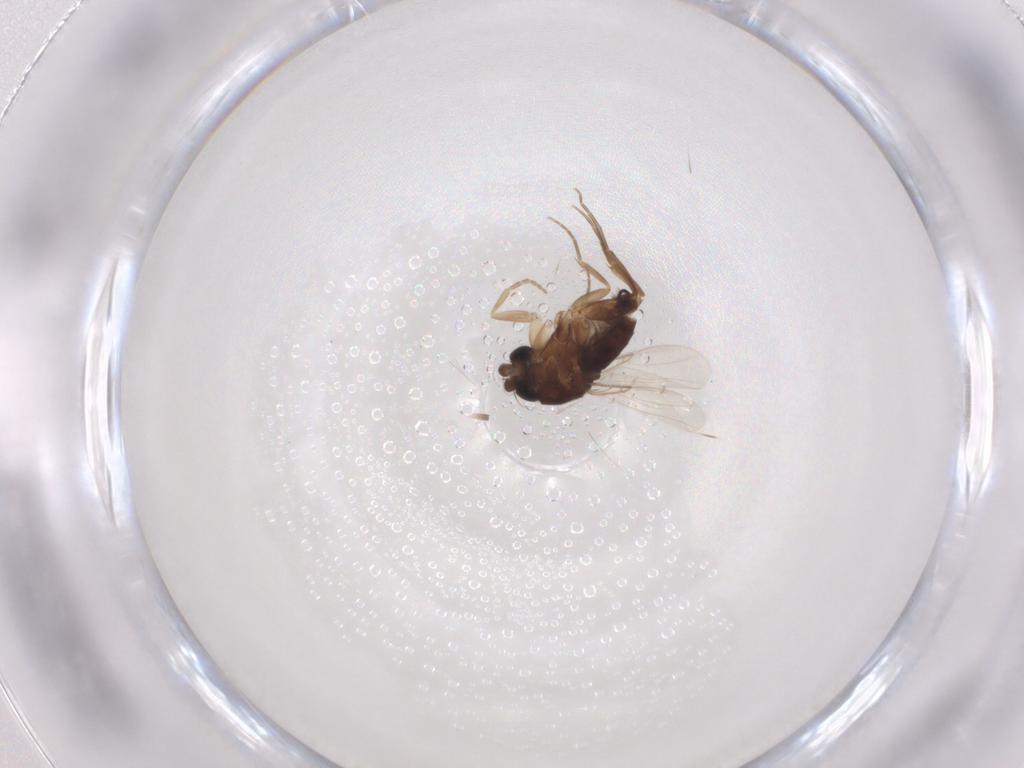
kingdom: Animalia
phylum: Arthropoda
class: Insecta
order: Diptera
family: Phoridae
